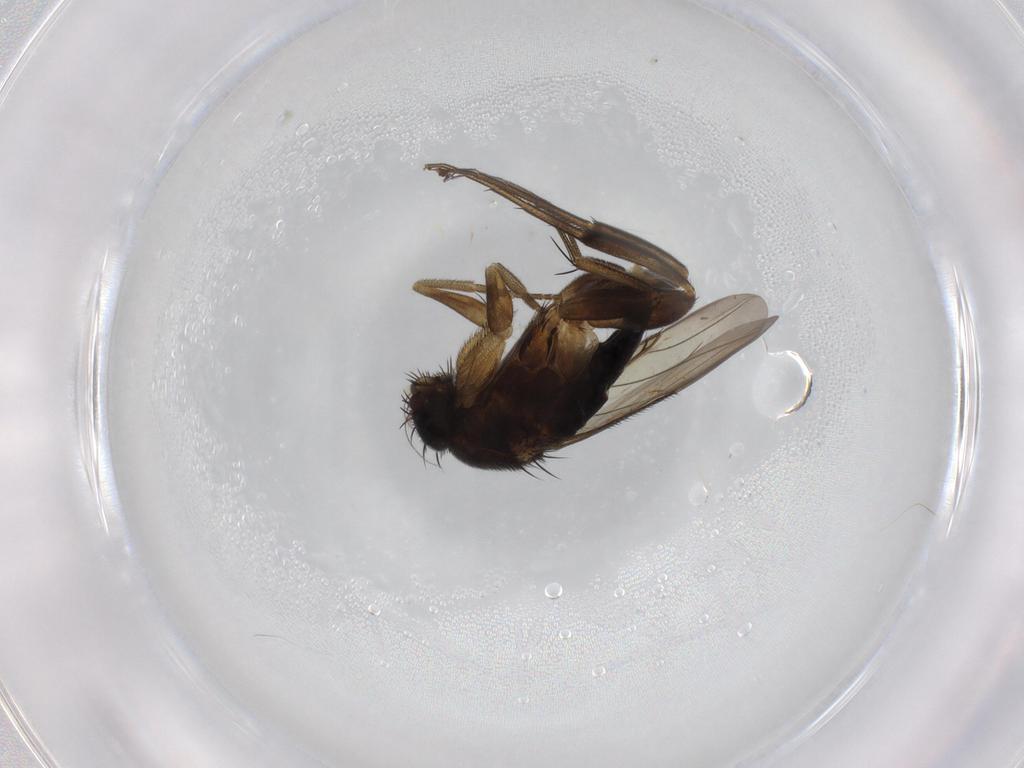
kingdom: Animalia
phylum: Arthropoda
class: Insecta
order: Diptera
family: Phoridae
